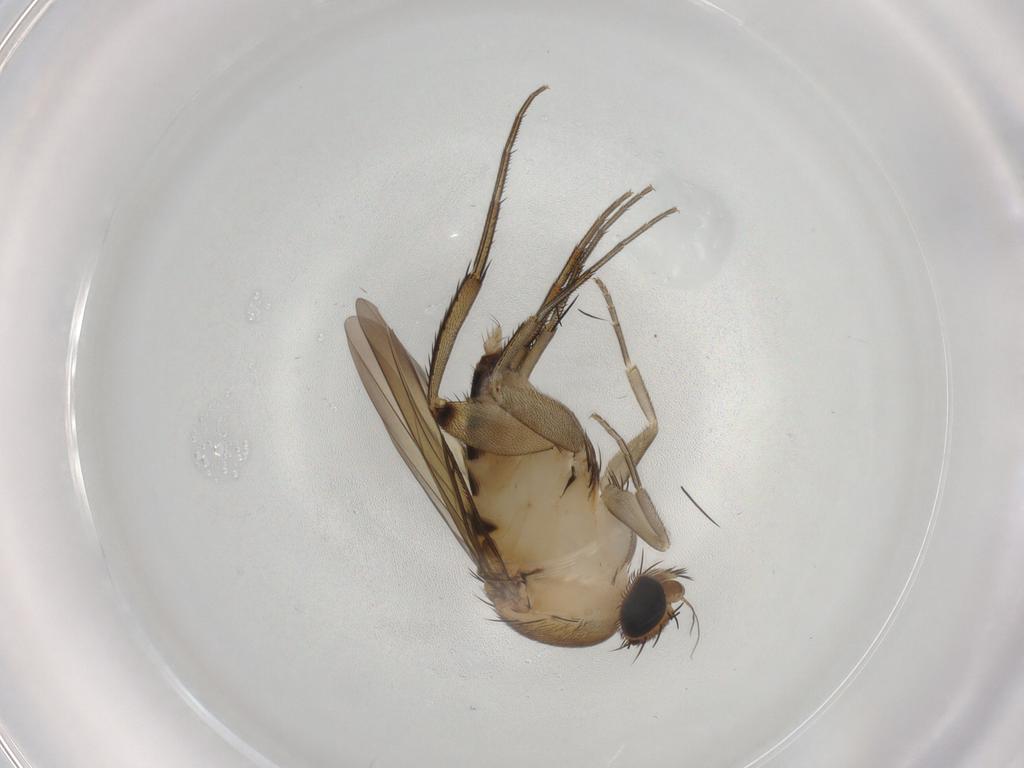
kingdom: Animalia
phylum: Arthropoda
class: Insecta
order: Diptera
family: Phoridae
